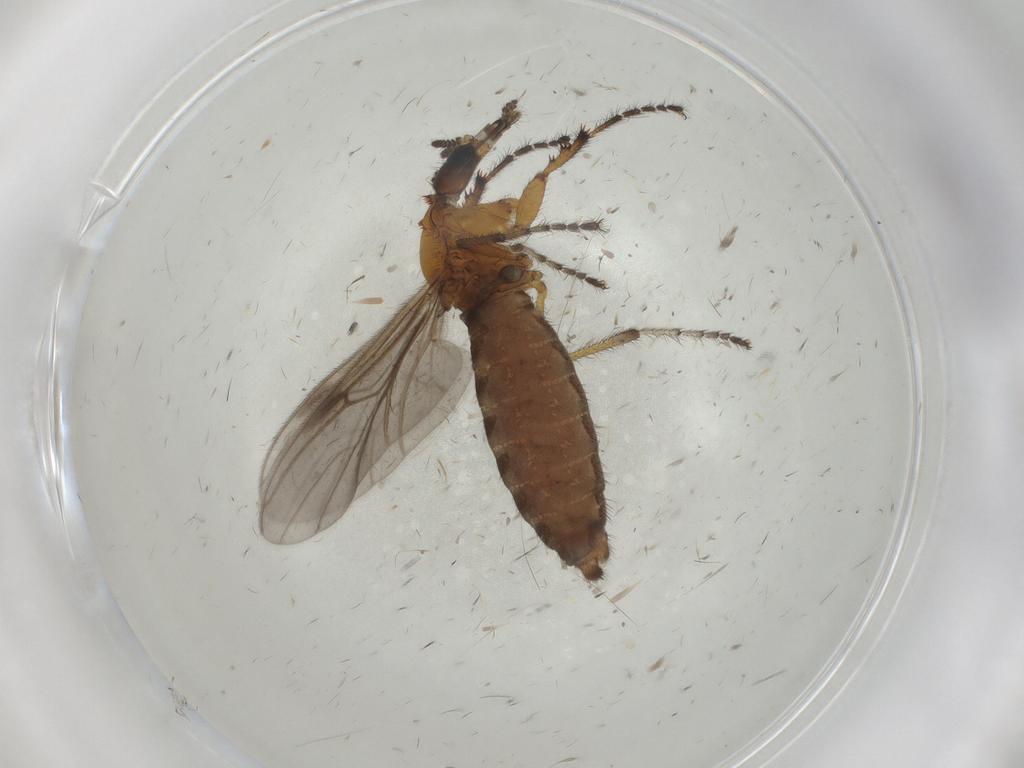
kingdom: Animalia
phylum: Arthropoda
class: Insecta
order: Diptera
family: Bibionidae
